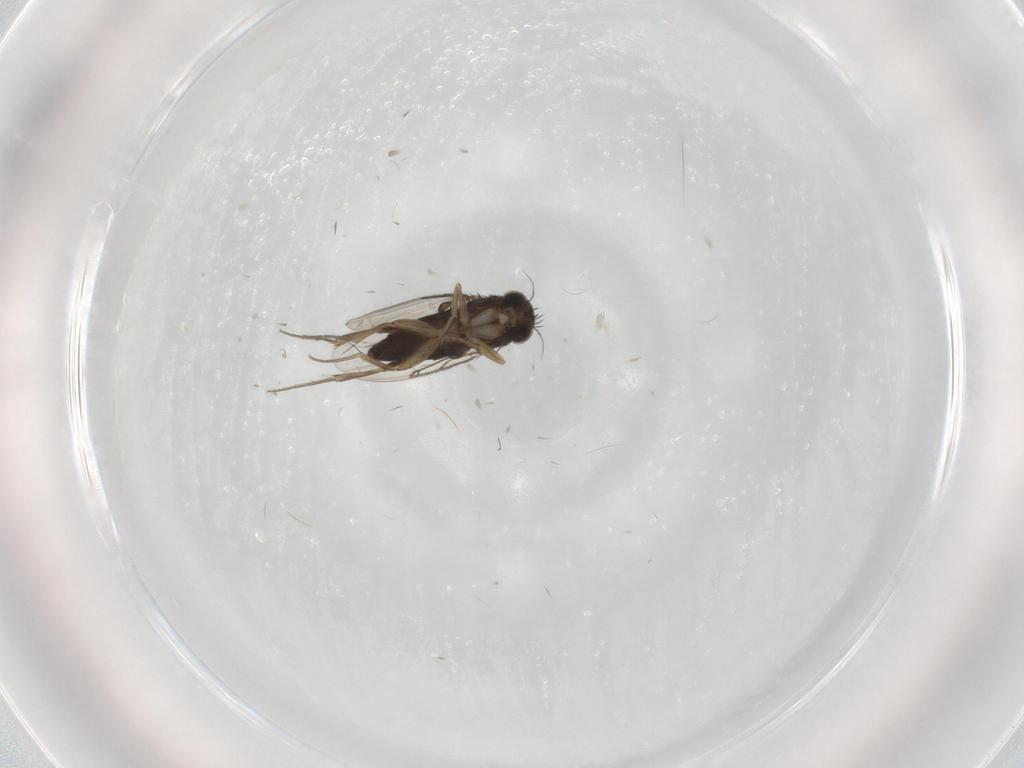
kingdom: Animalia
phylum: Arthropoda
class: Insecta
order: Diptera
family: Phoridae
